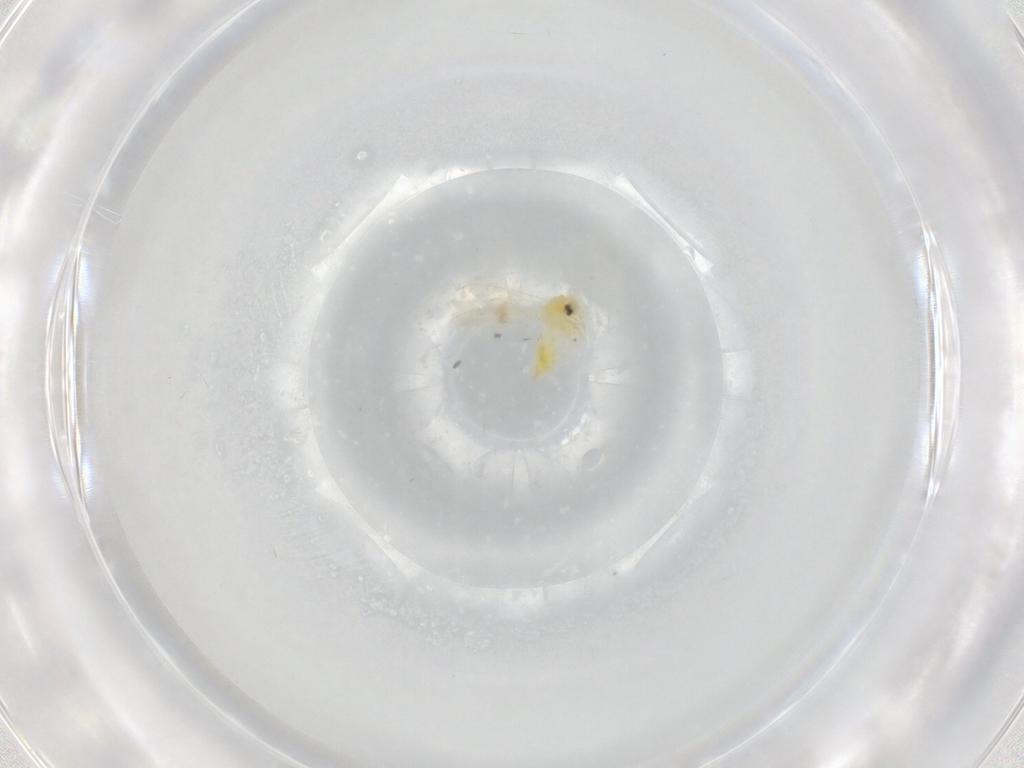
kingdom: Animalia
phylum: Arthropoda
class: Insecta
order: Hemiptera
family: Aleyrodidae
